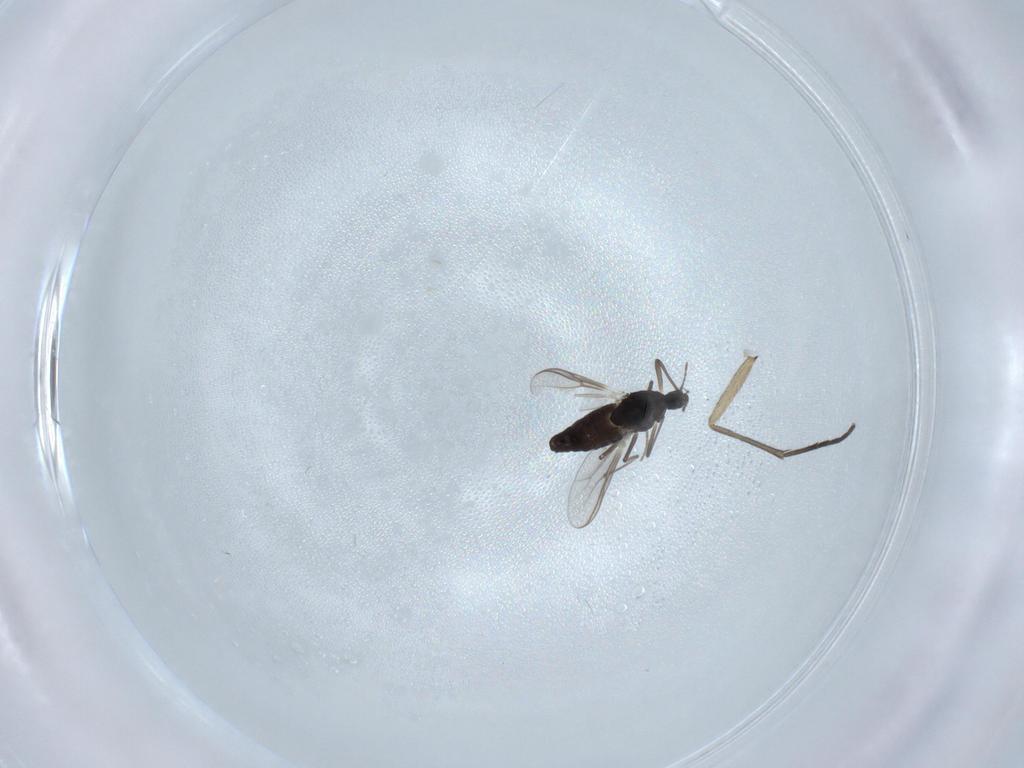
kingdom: Animalia
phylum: Arthropoda
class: Insecta
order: Diptera
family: Chironomidae
